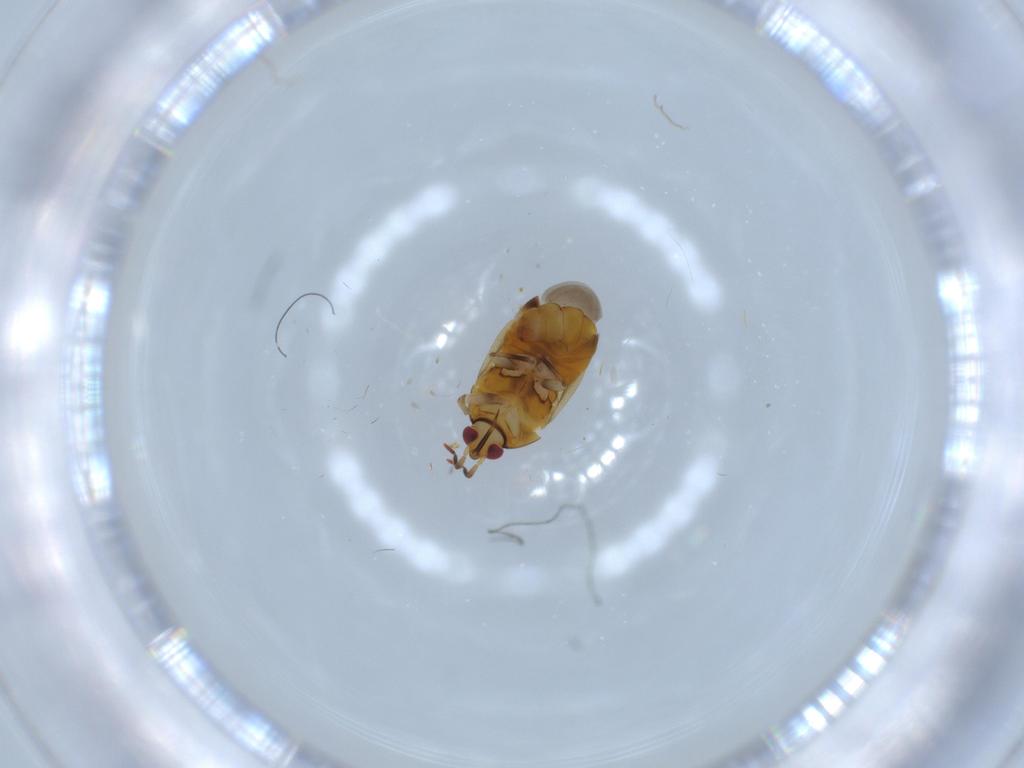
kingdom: Animalia
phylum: Arthropoda
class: Insecta
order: Hemiptera
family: Anthocoridae
